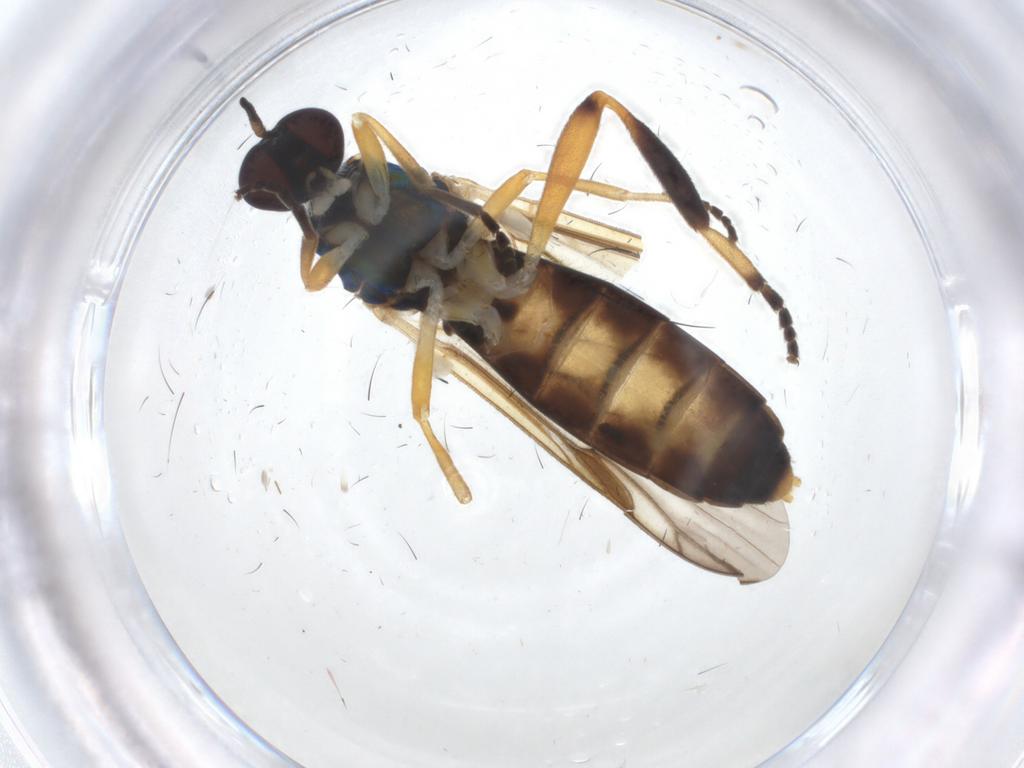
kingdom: Animalia
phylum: Arthropoda
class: Insecta
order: Diptera
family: Stratiomyidae
